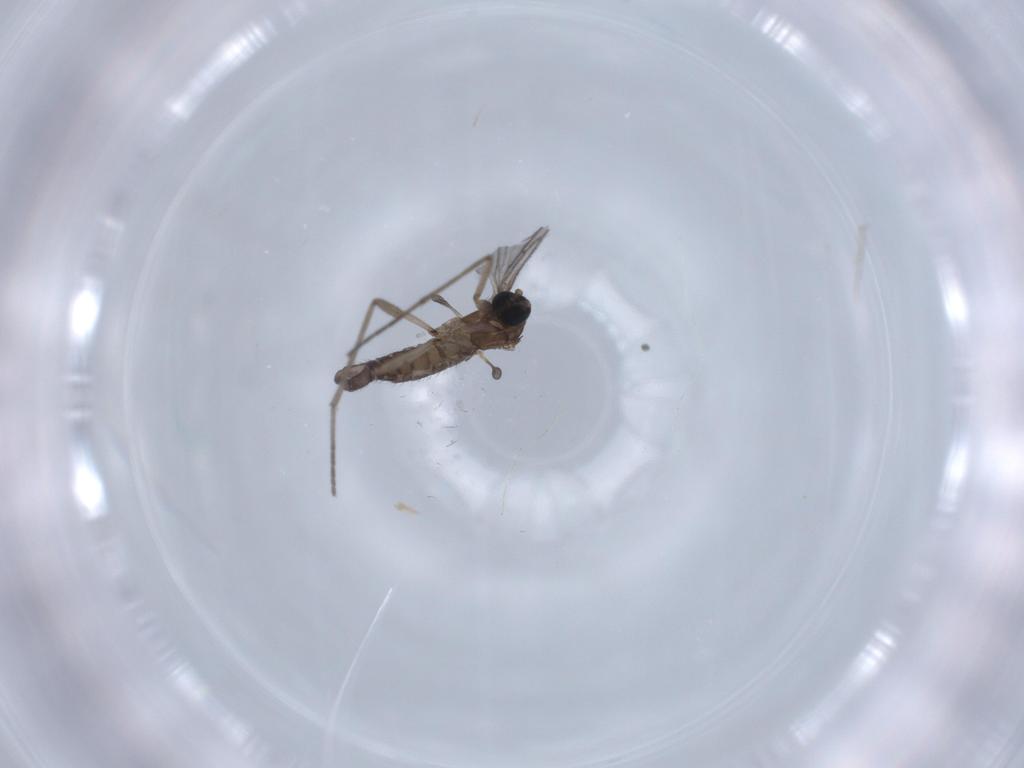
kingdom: Animalia
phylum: Arthropoda
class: Insecta
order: Diptera
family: Sciaridae
